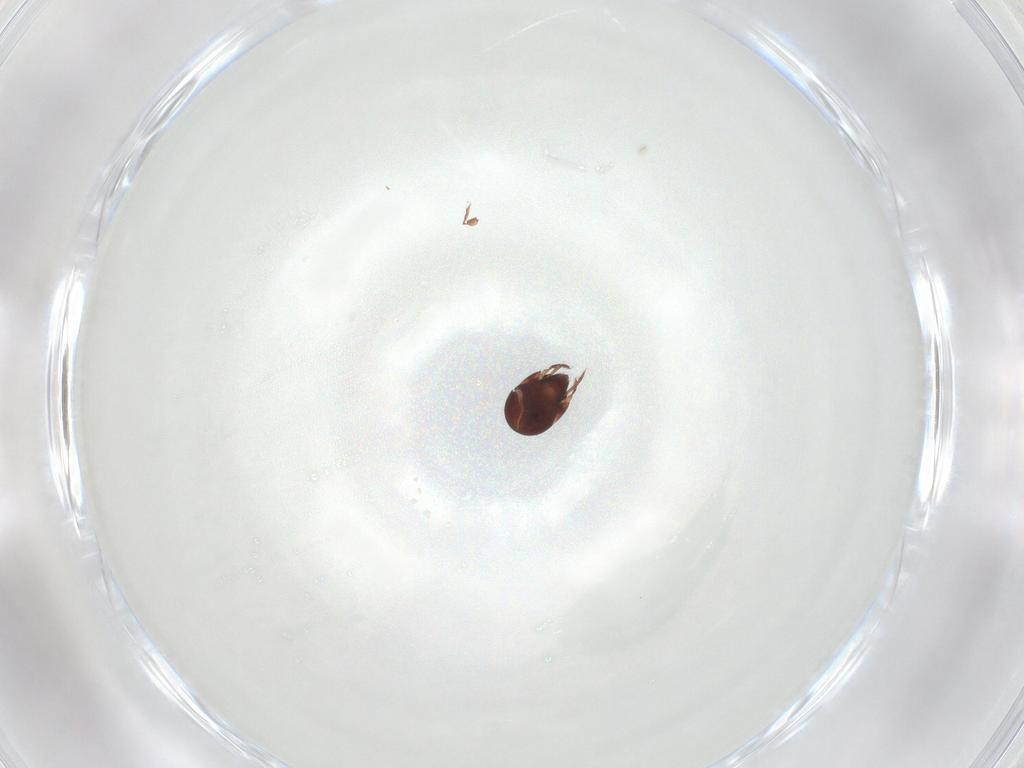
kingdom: Animalia
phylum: Arthropoda
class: Arachnida
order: Sarcoptiformes
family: Humerobatidae
